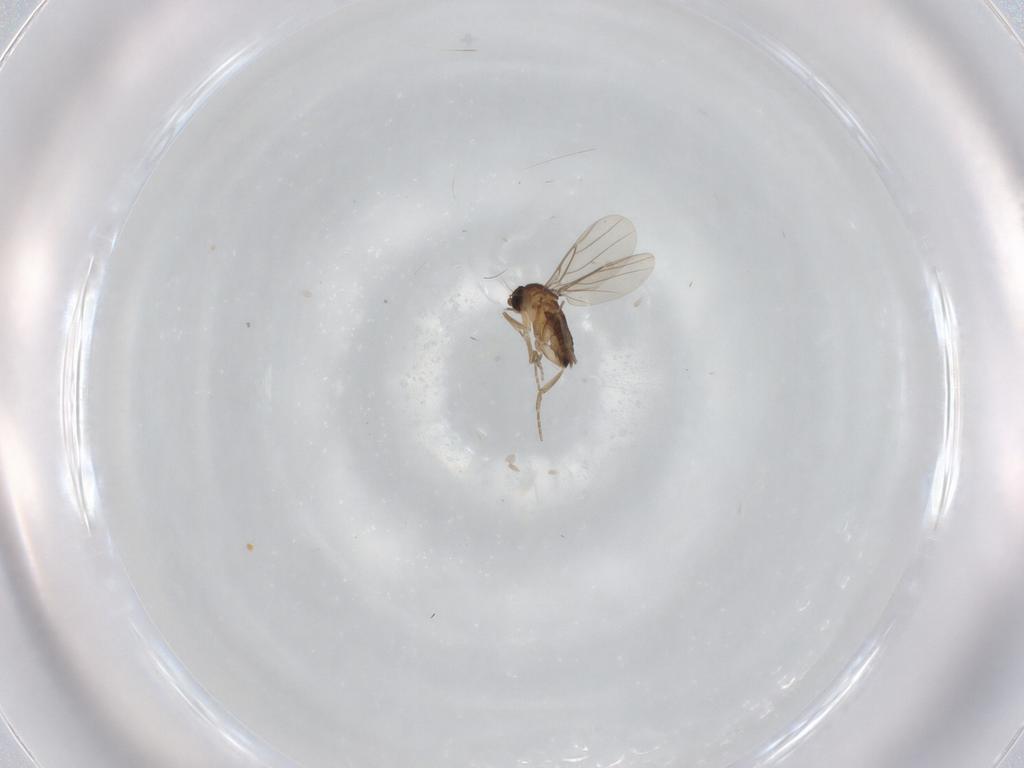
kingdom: Animalia
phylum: Arthropoda
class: Insecta
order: Diptera
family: Phoridae
